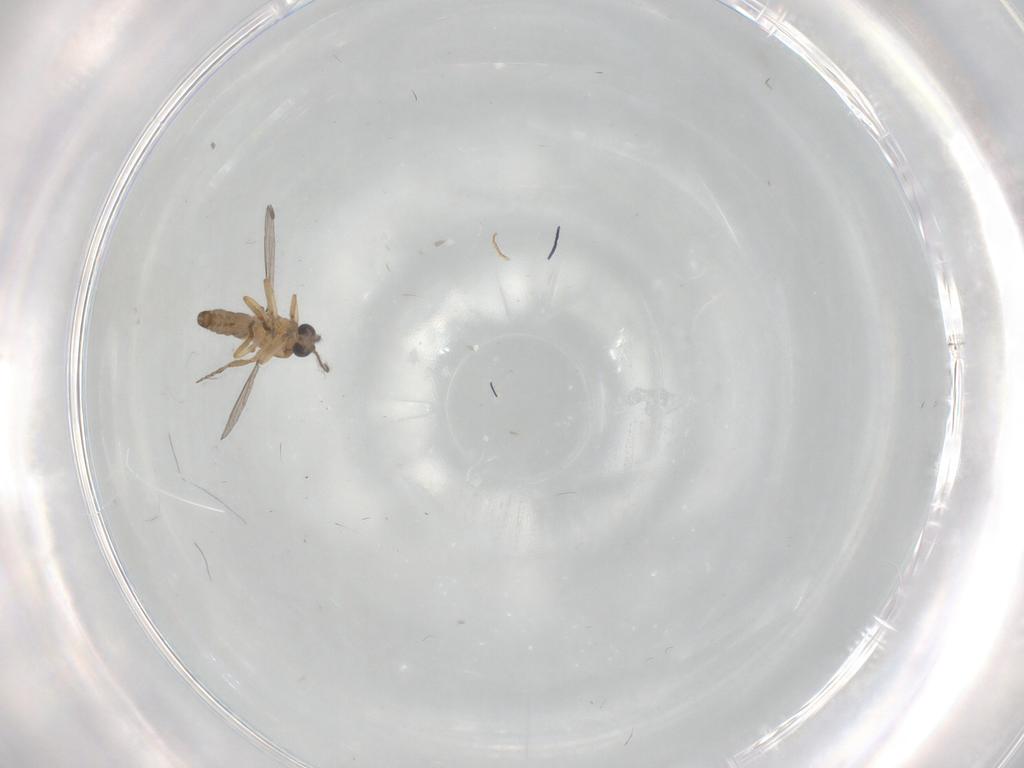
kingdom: Animalia
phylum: Arthropoda
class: Insecta
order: Diptera
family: Ceratopogonidae
